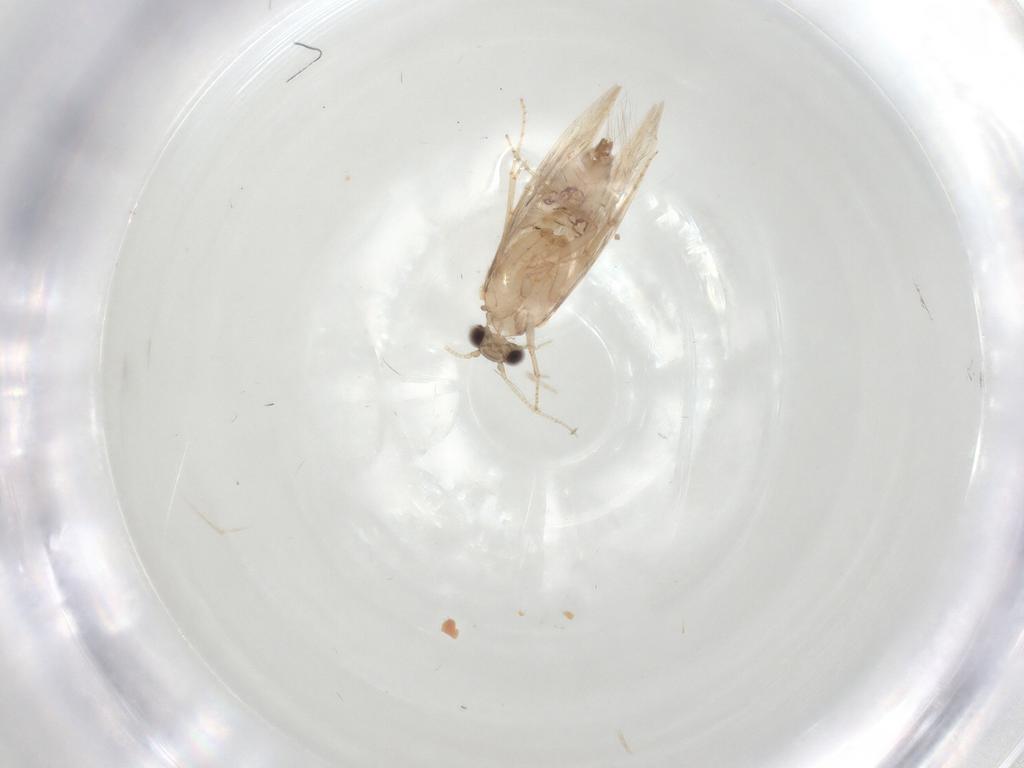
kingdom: Animalia
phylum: Arthropoda
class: Insecta
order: Trichoptera
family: Hydroptilidae
